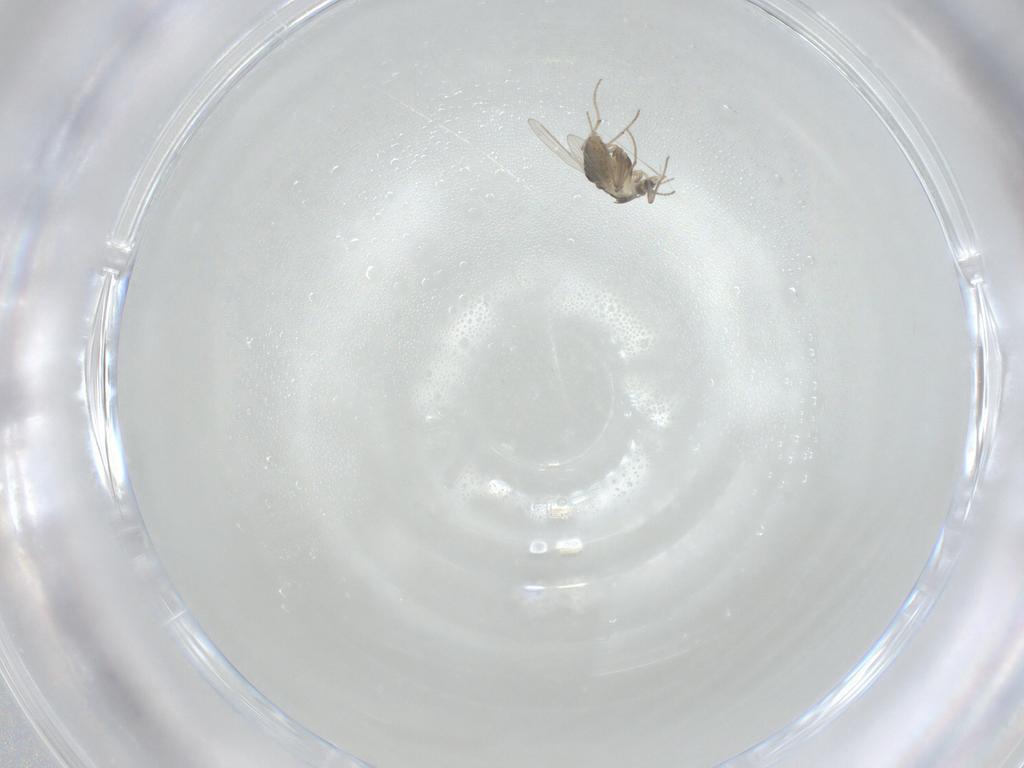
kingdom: Animalia
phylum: Arthropoda
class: Insecta
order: Diptera
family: Chironomidae
